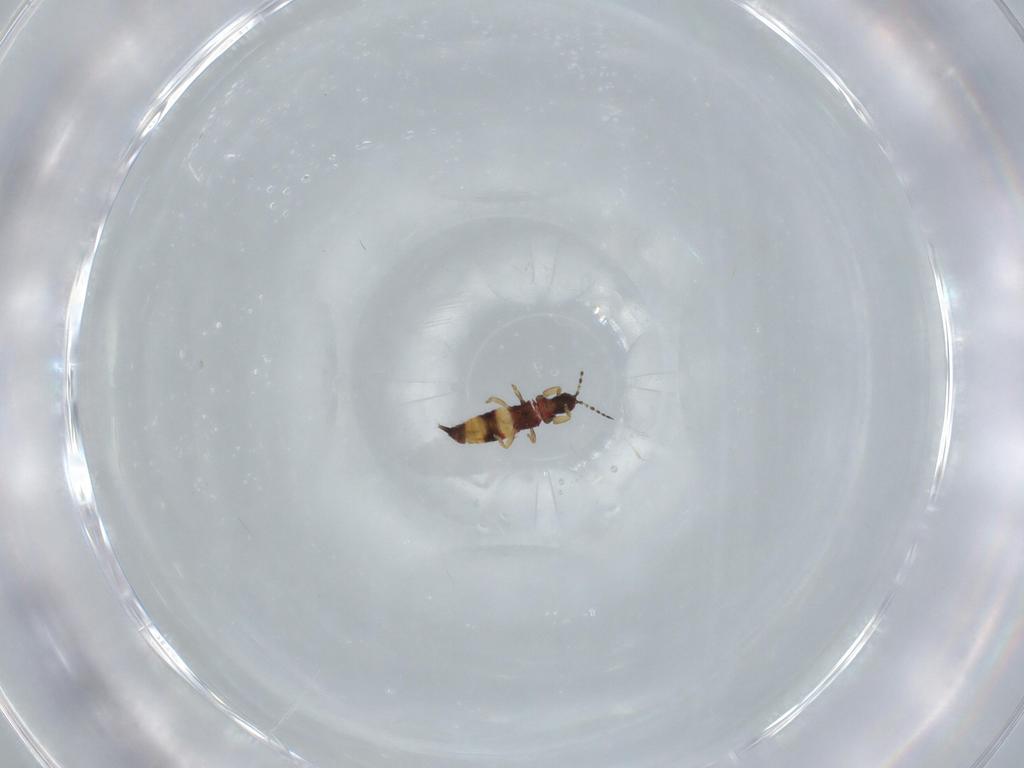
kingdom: Animalia
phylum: Arthropoda
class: Insecta
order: Thysanoptera
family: Phlaeothripidae
